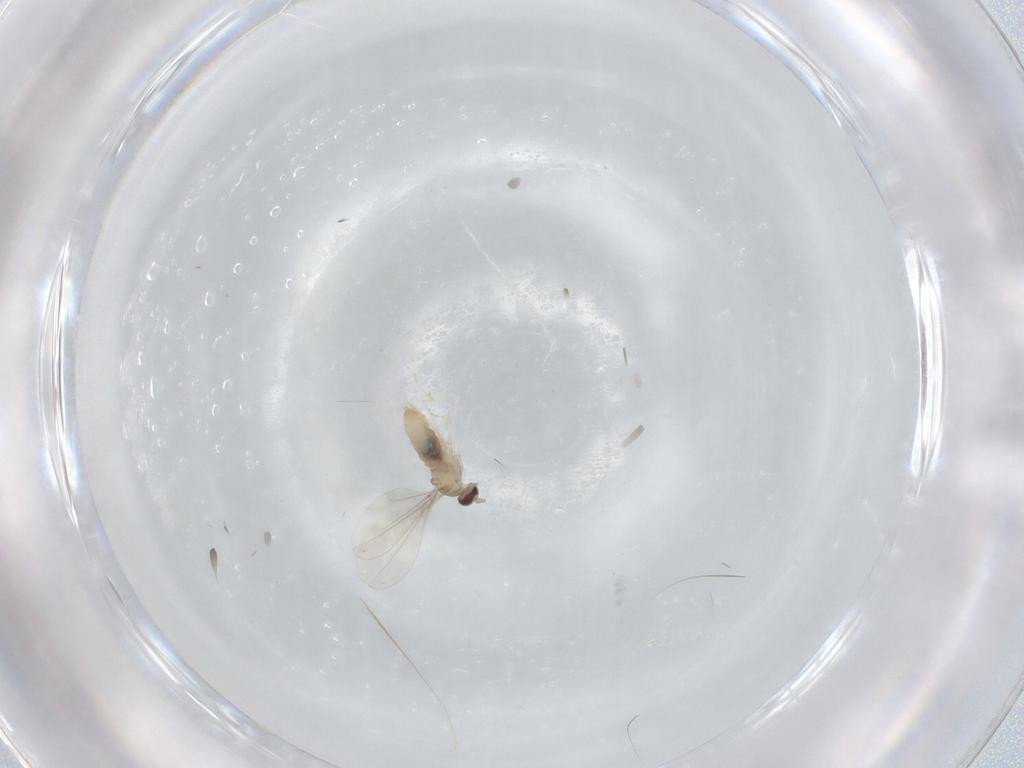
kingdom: Animalia
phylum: Arthropoda
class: Insecta
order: Diptera
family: Cecidomyiidae
